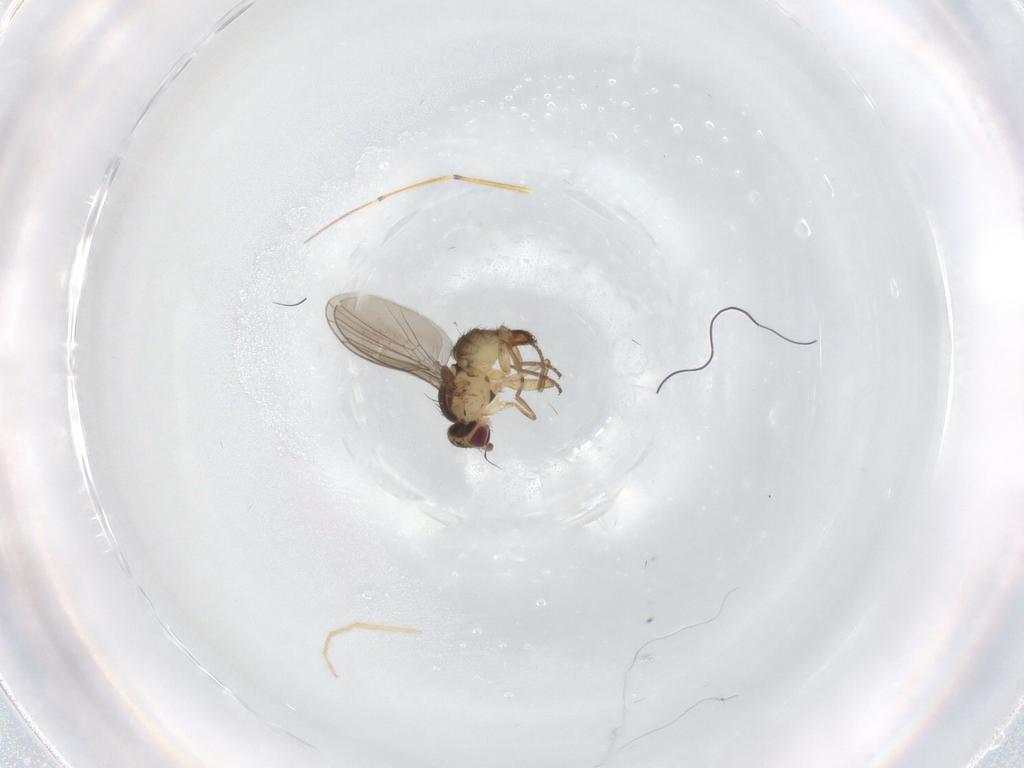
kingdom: Animalia
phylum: Arthropoda
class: Insecta
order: Diptera
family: Agromyzidae
